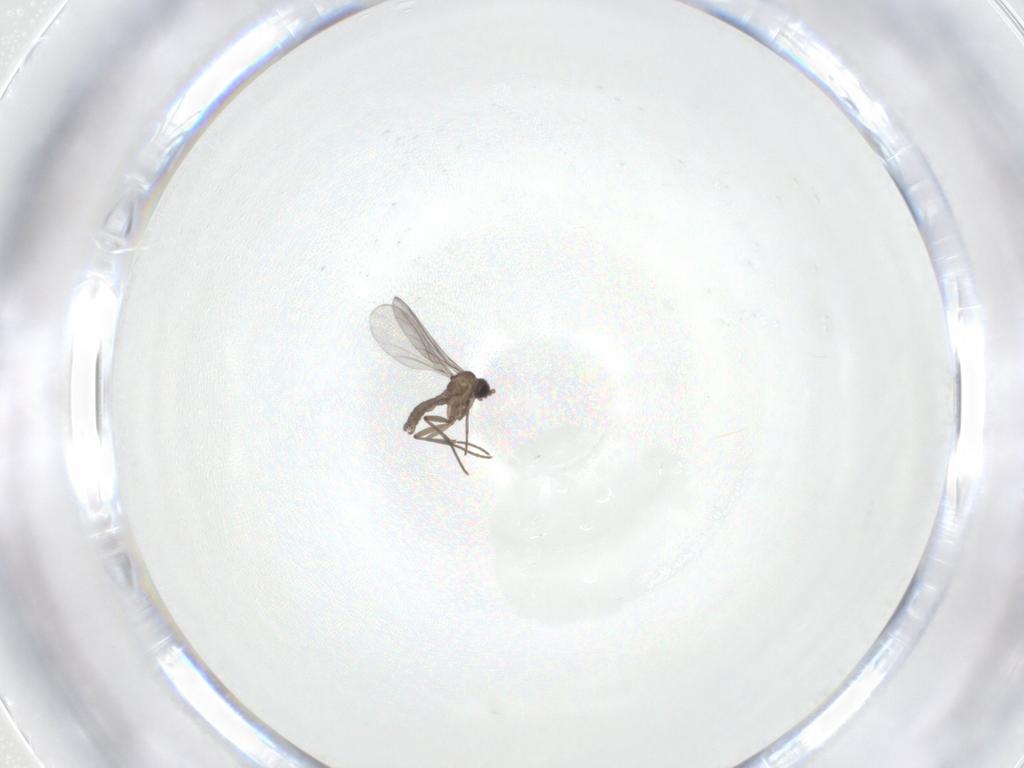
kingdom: Animalia
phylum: Arthropoda
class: Insecta
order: Diptera
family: Sciaridae
